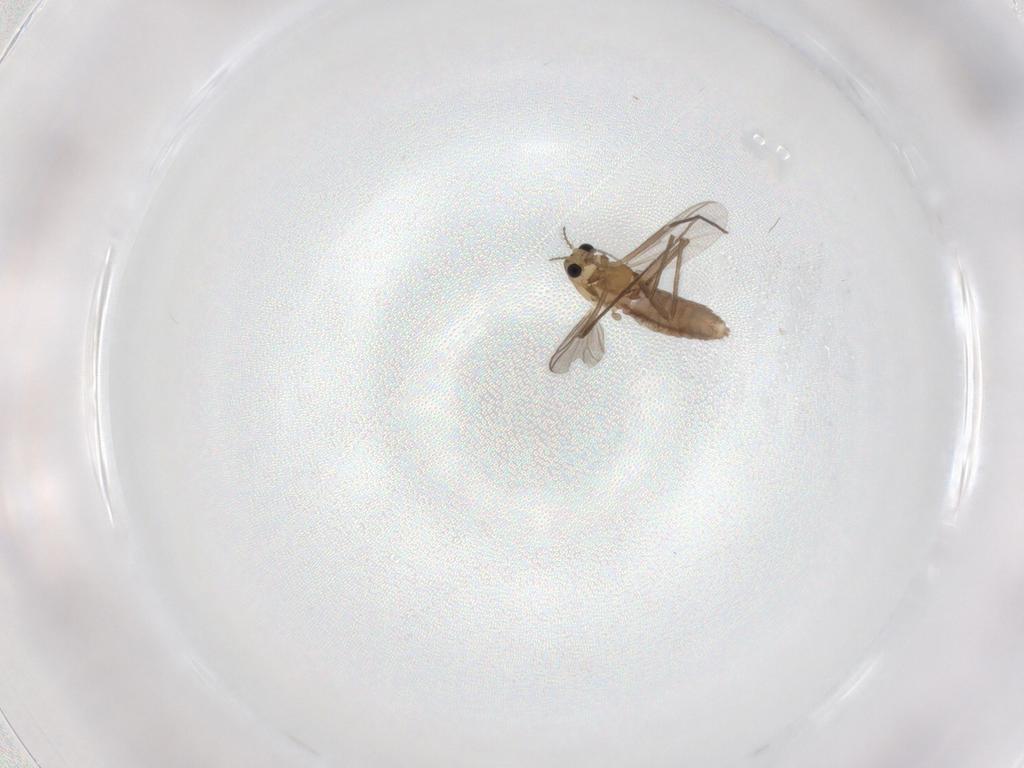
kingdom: Animalia
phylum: Arthropoda
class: Insecta
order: Diptera
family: Chironomidae
